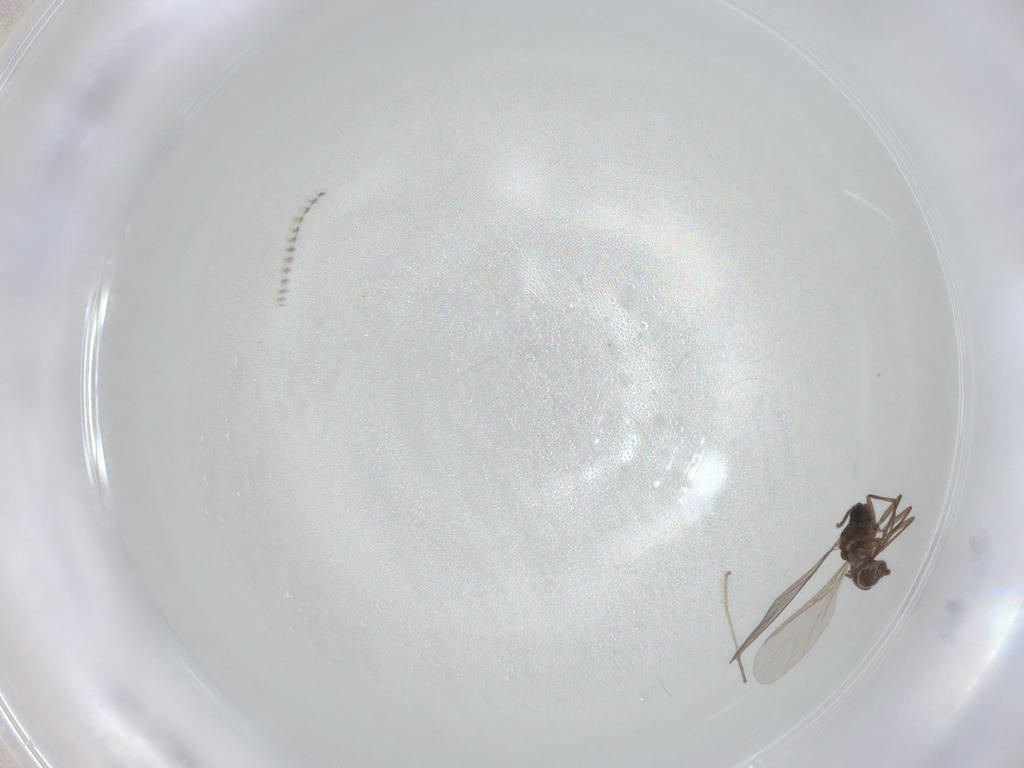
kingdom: Animalia
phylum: Arthropoda
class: Insecta
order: Diptera
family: Sciaridae
